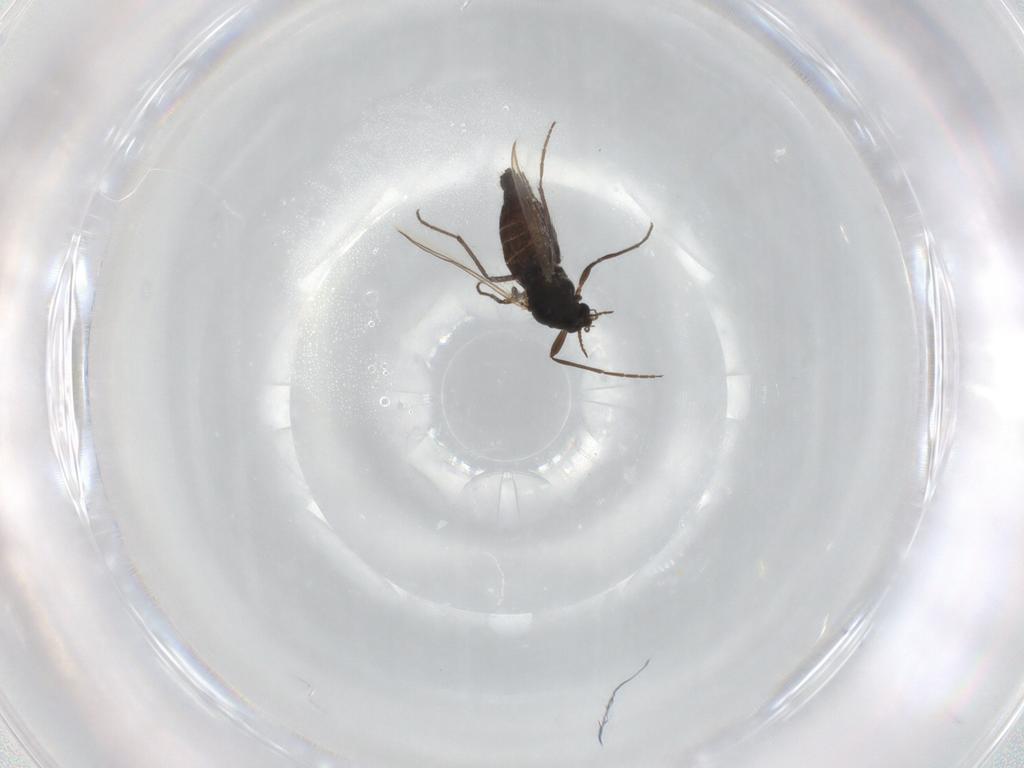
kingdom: Animalia
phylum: Arthropoda
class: Insecta
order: Diptera
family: Chironomidae
